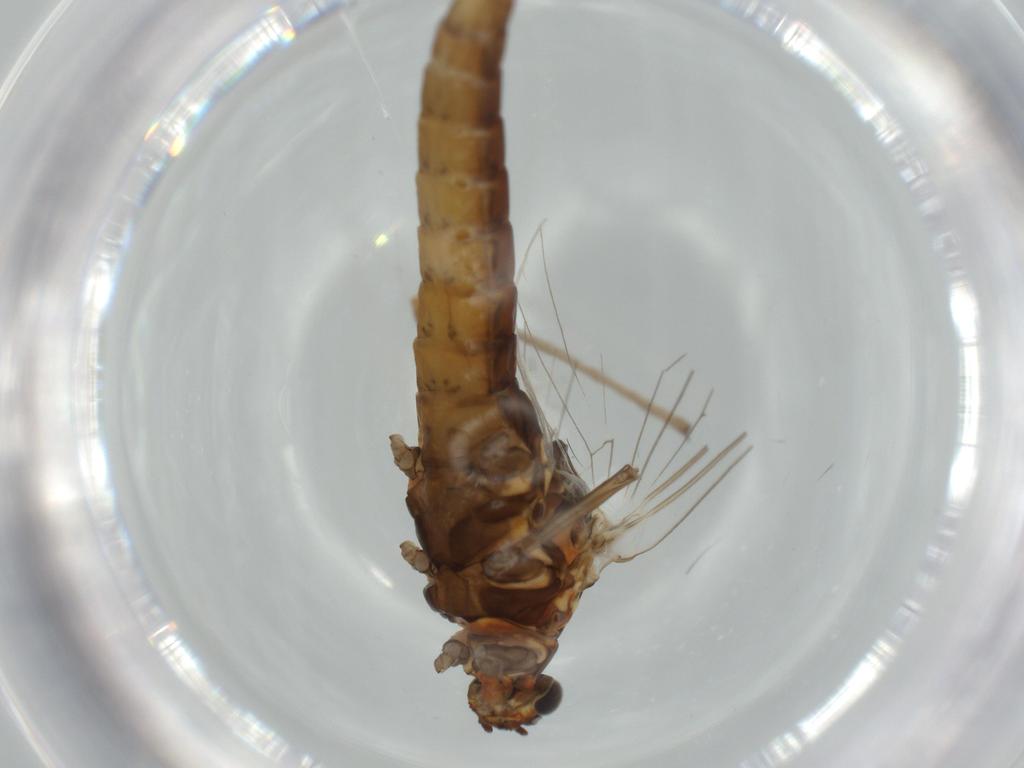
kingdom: Animalia
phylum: Arthropoda
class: Insecta
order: Diptera
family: Cecidomyiidae
